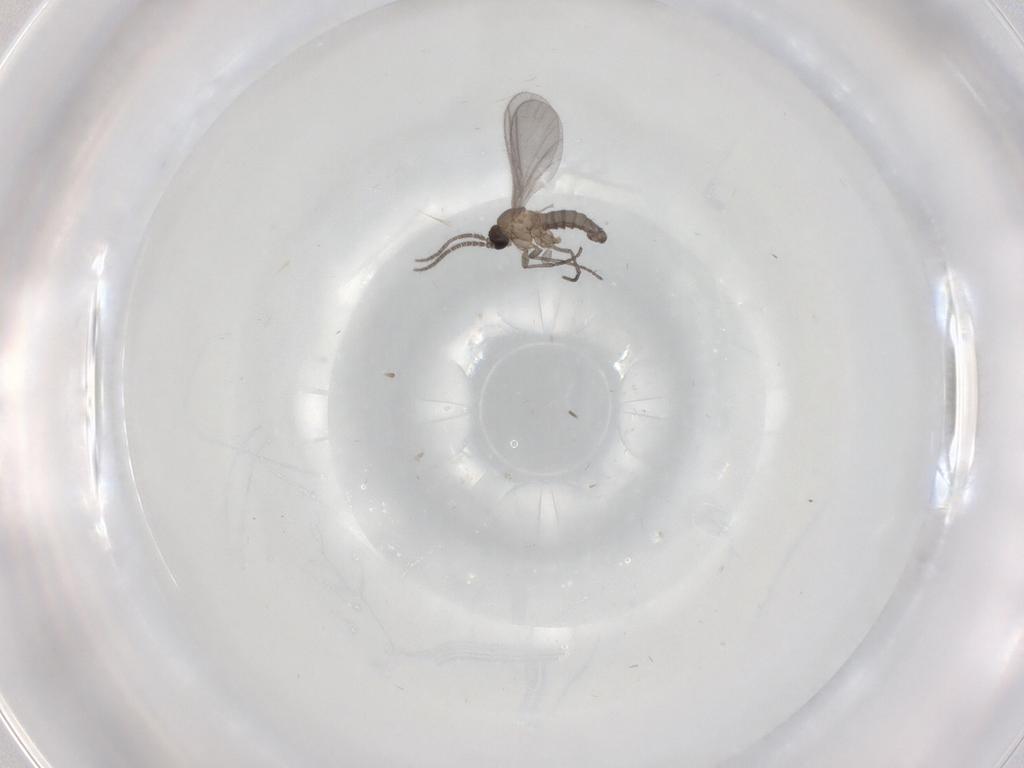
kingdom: Animalia
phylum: Arthropoda
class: Insecta
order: Diptera
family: Sciaridae
